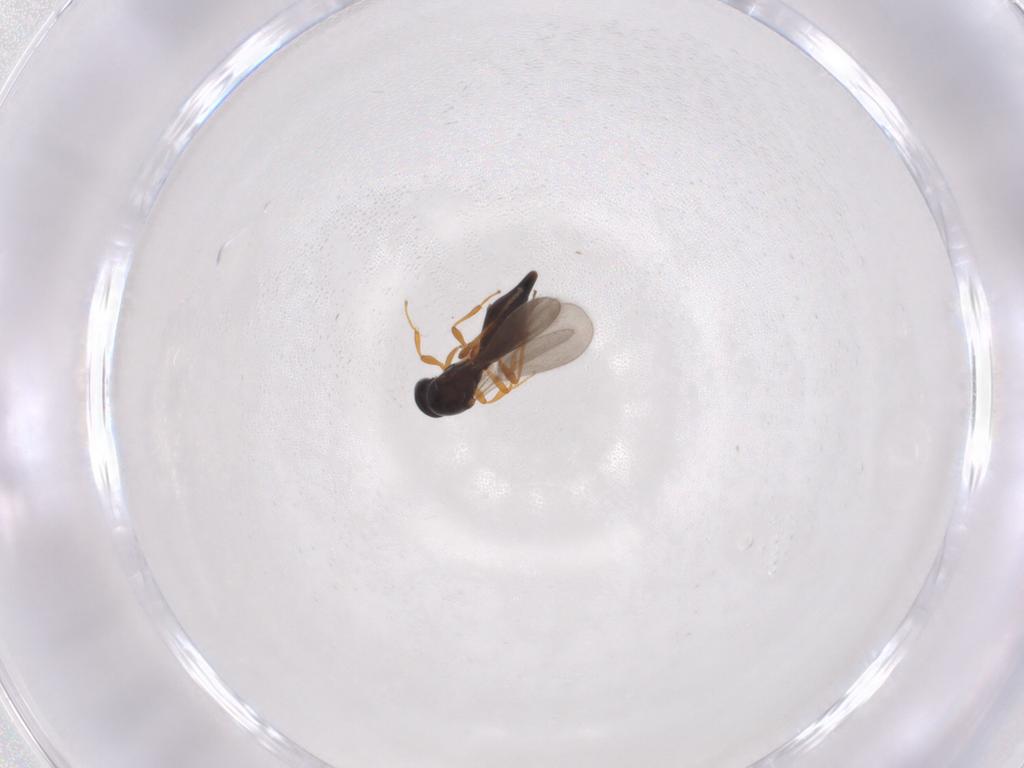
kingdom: Animalia
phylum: Arthropoda
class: Insecta
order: Hymenoptera
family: Platygastridae
